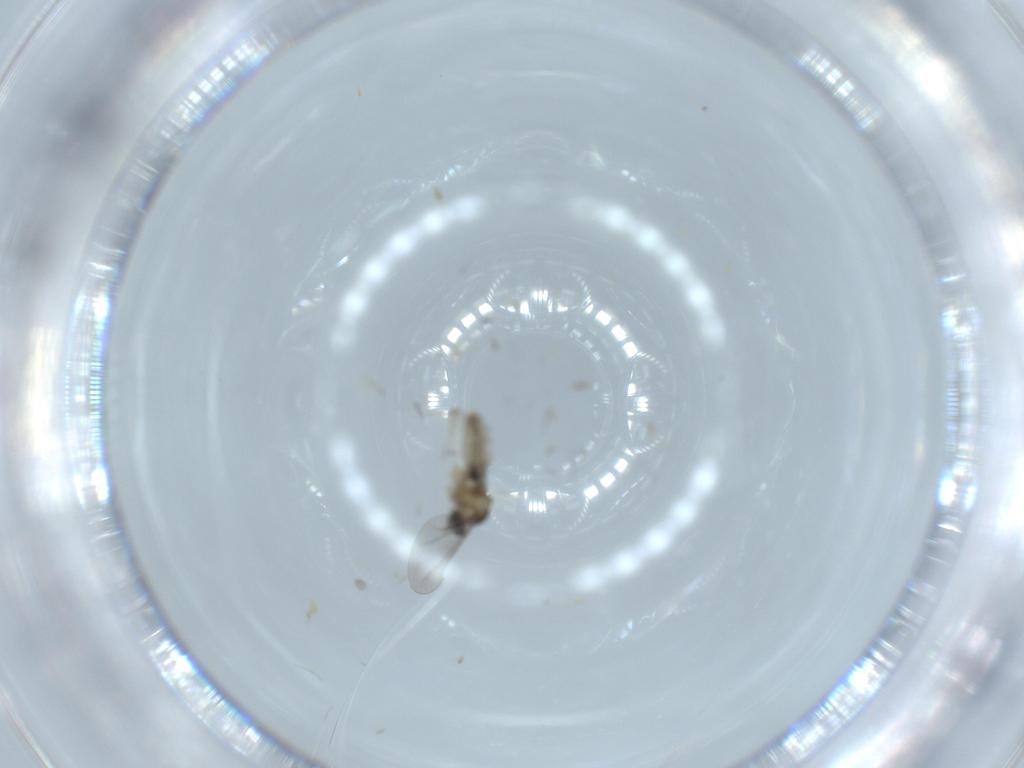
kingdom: Animalia
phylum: Arthropoda
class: Insecta
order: Diptera
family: Cecidomyiidae
